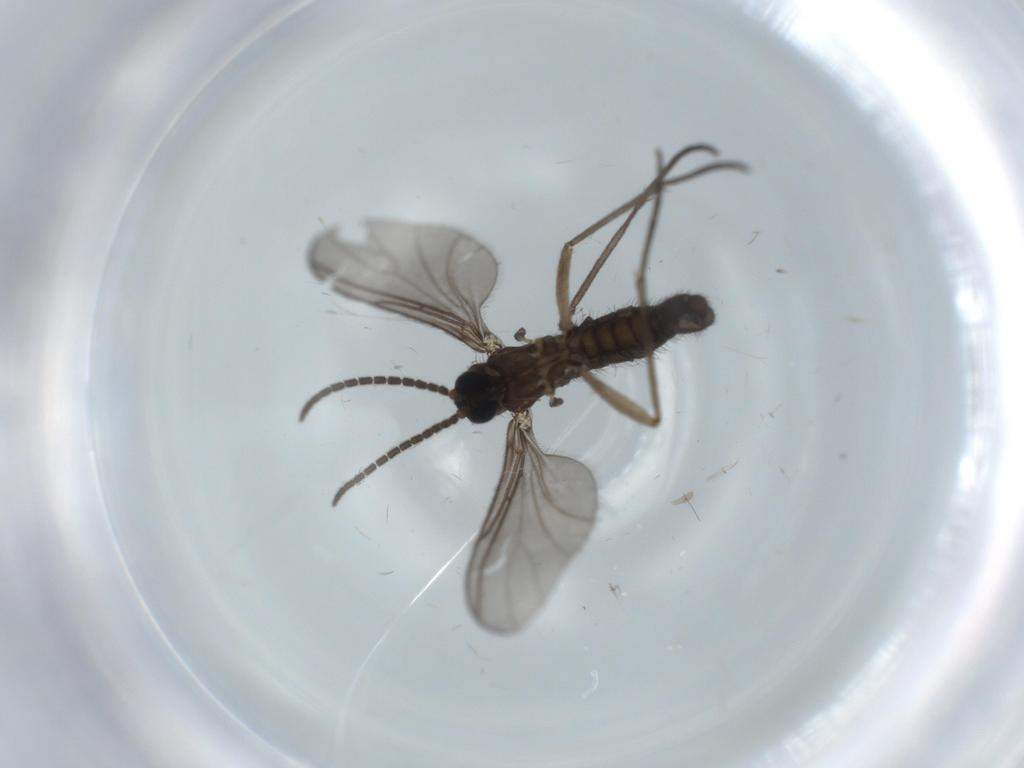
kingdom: Animalia
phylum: Arthropoda
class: Insecta
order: Diptera
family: Sciaridae
